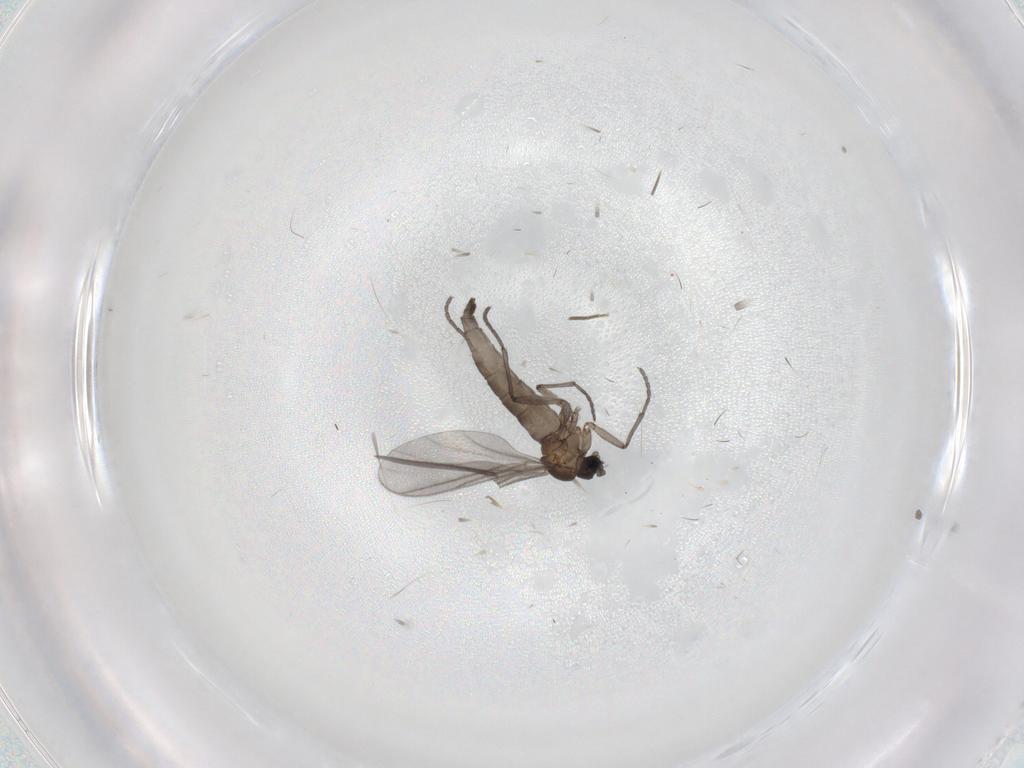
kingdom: Animalia
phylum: Arthropoda
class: Insecta
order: Diptera
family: Sciaridae
